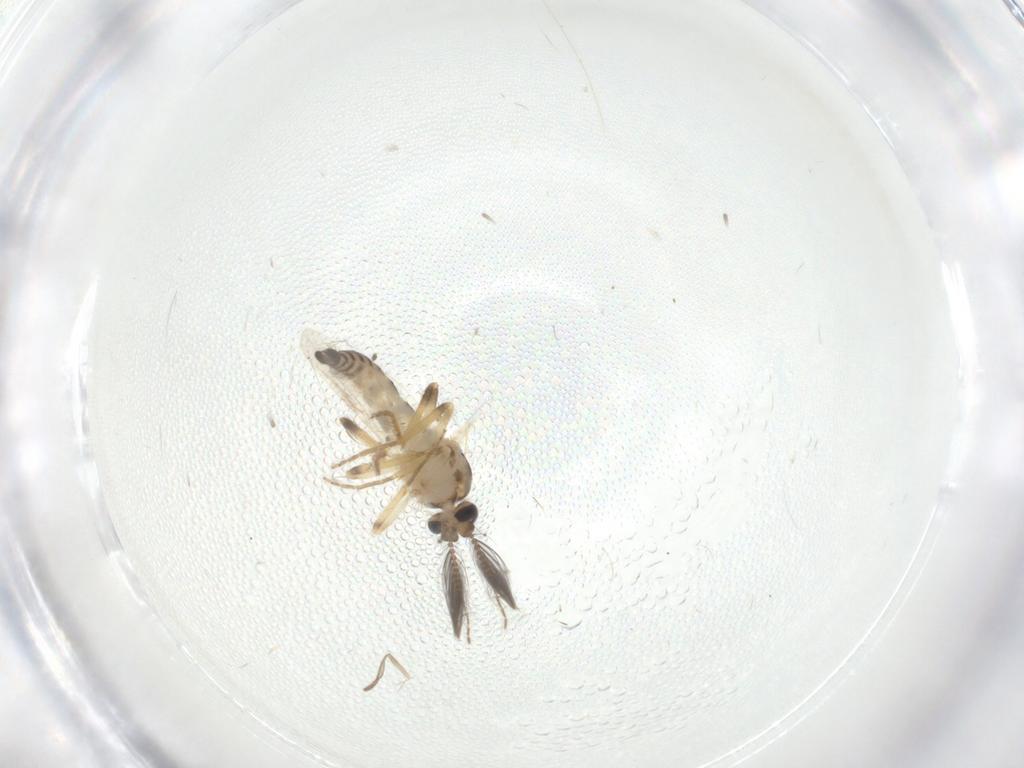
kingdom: Animalia
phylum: Arthropoda
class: Insecta
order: Diptera
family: Psychodidae
